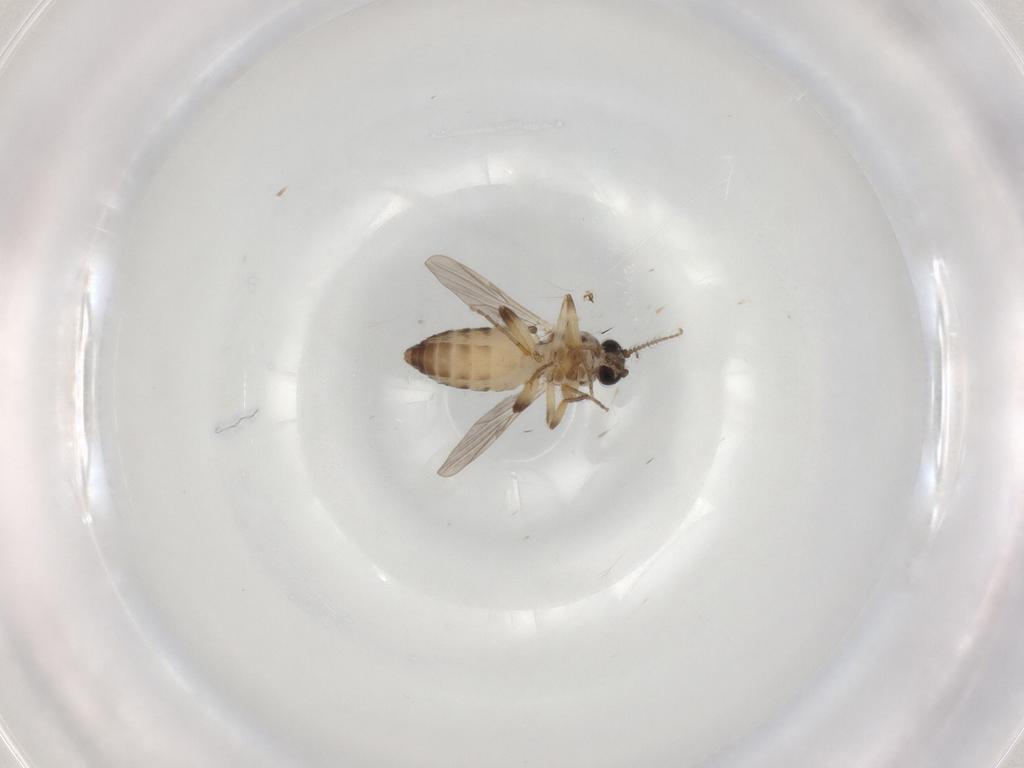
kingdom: Animalia
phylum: Arthropoda
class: Insecta
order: Diptera
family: Ceratopogonidae
